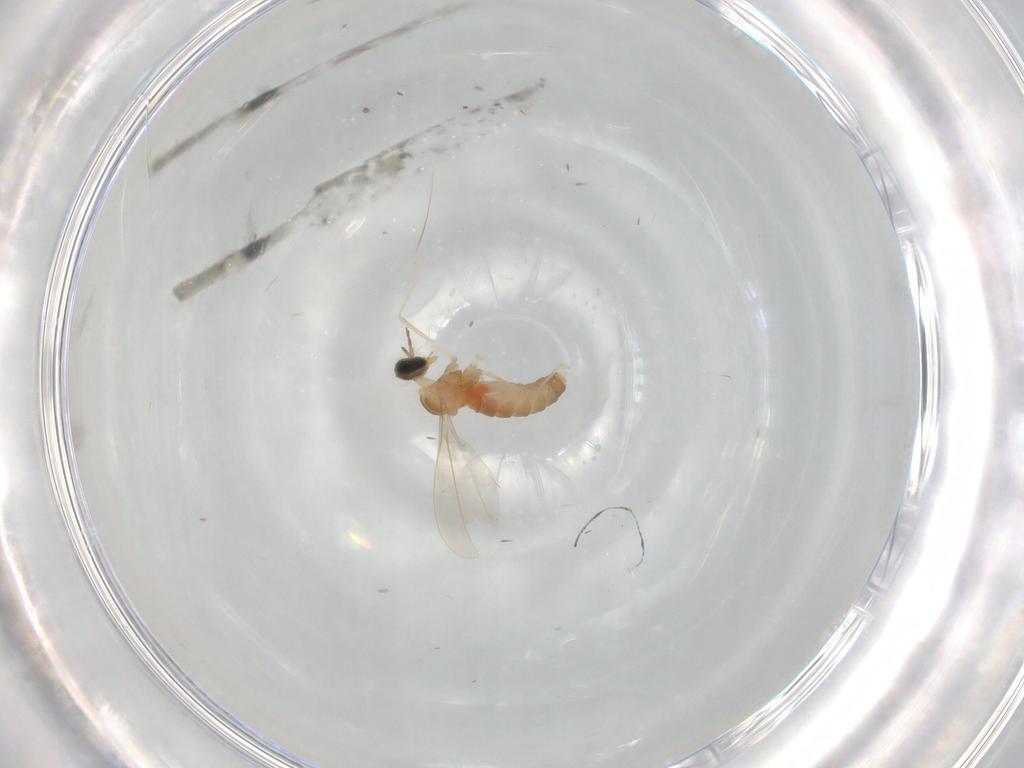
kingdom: Animalia
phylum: Arthropoda
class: Insecta
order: Diptera
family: Cecidomyiidae
